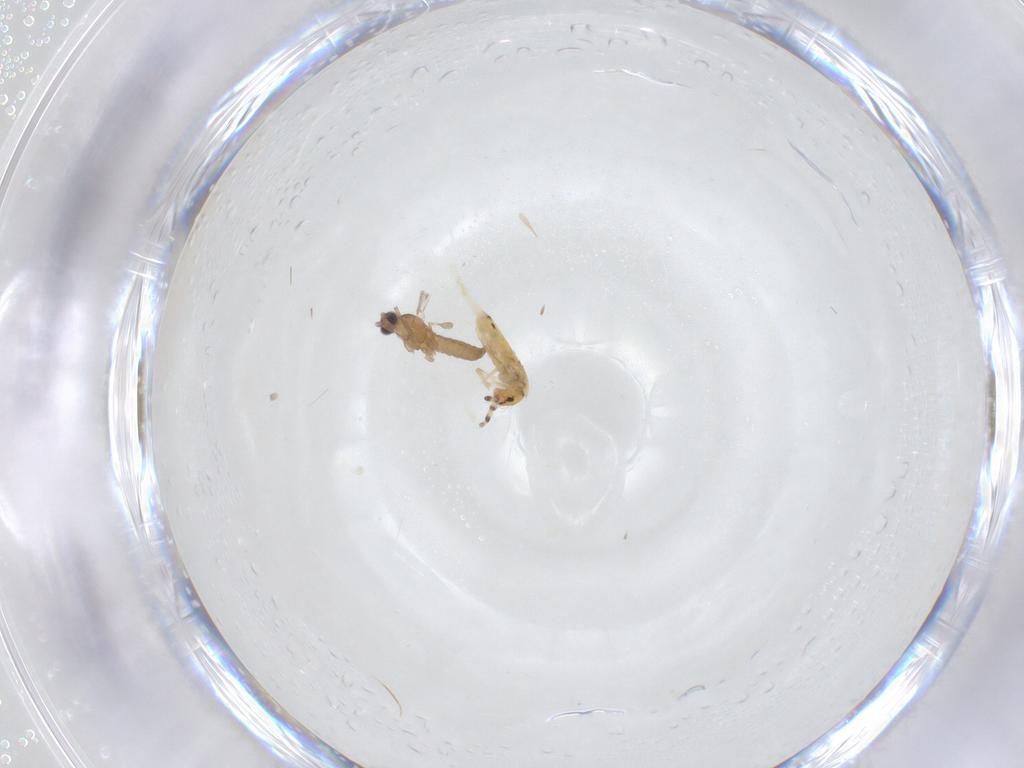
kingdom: Animalia
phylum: Arthropoda
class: Insecta
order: Diptera
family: Cecidomyiidae
